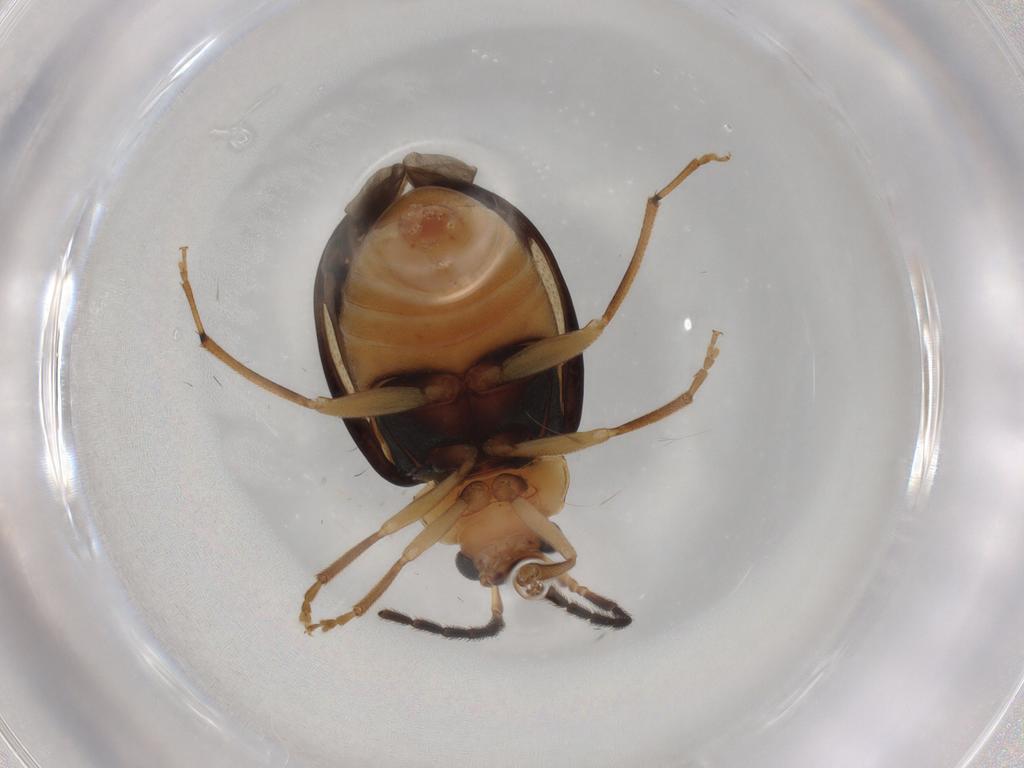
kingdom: Animalia
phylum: Arthropoda
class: Insecta
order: Coleoptera
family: Chrysomelidae
